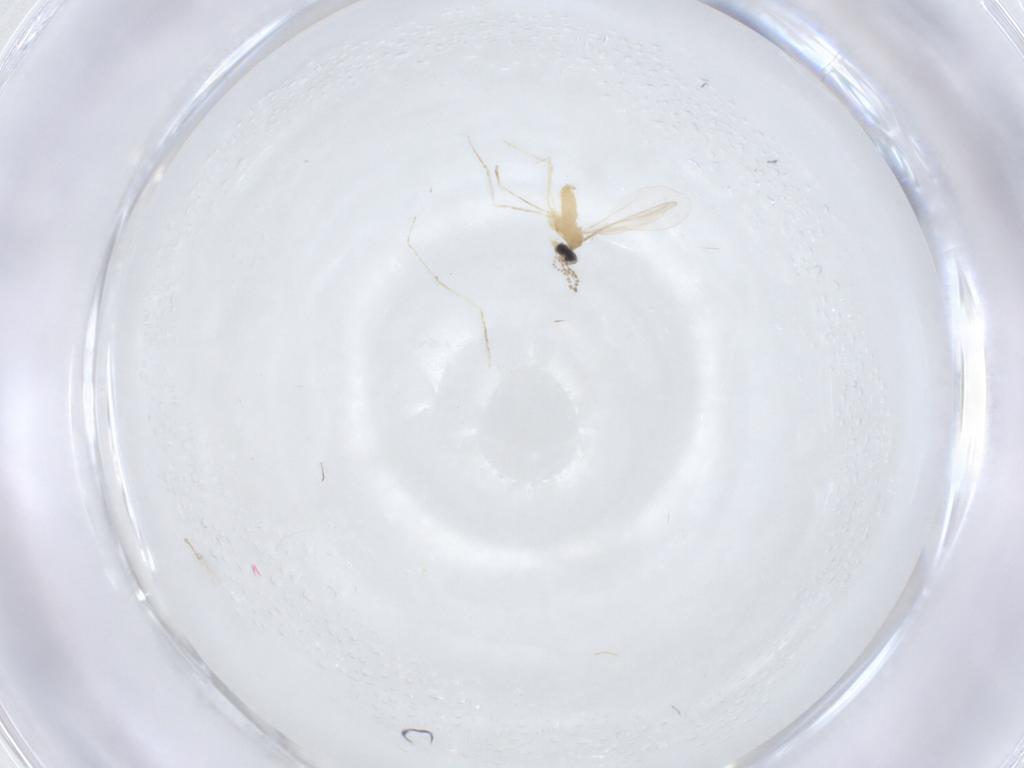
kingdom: Animalia
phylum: Arthropoda
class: Insecta
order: Diptera
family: Cecidomyiidae
